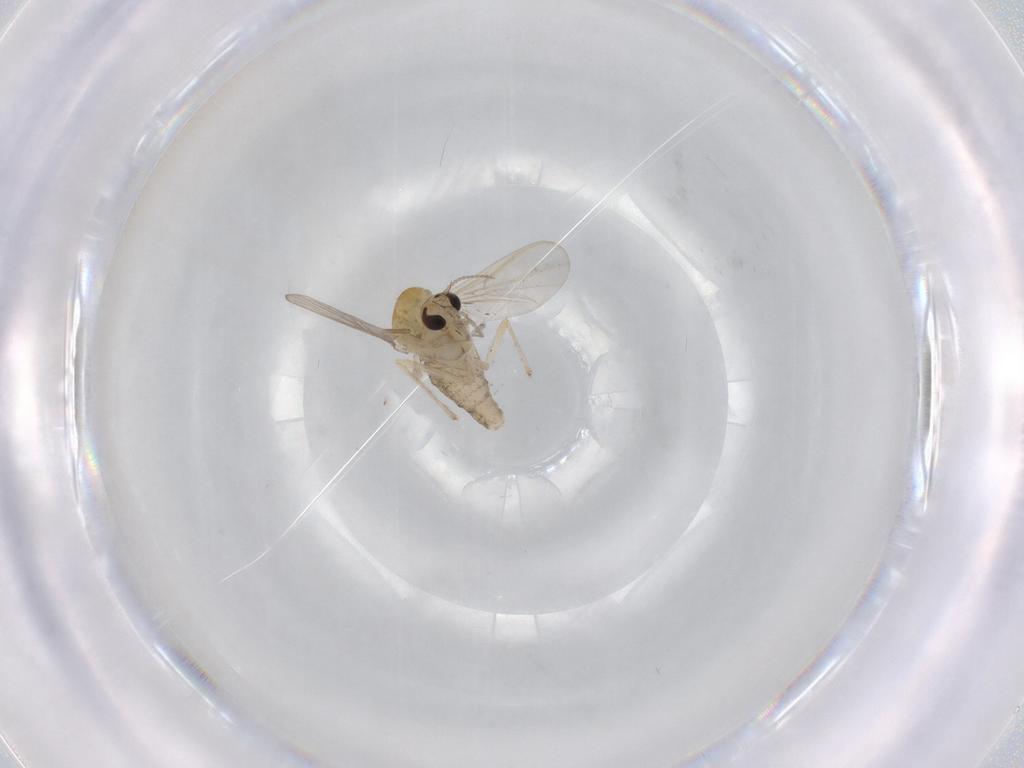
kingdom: Animalia
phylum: Arthropoda
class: Insecta
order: Diptera
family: Chironomidae
